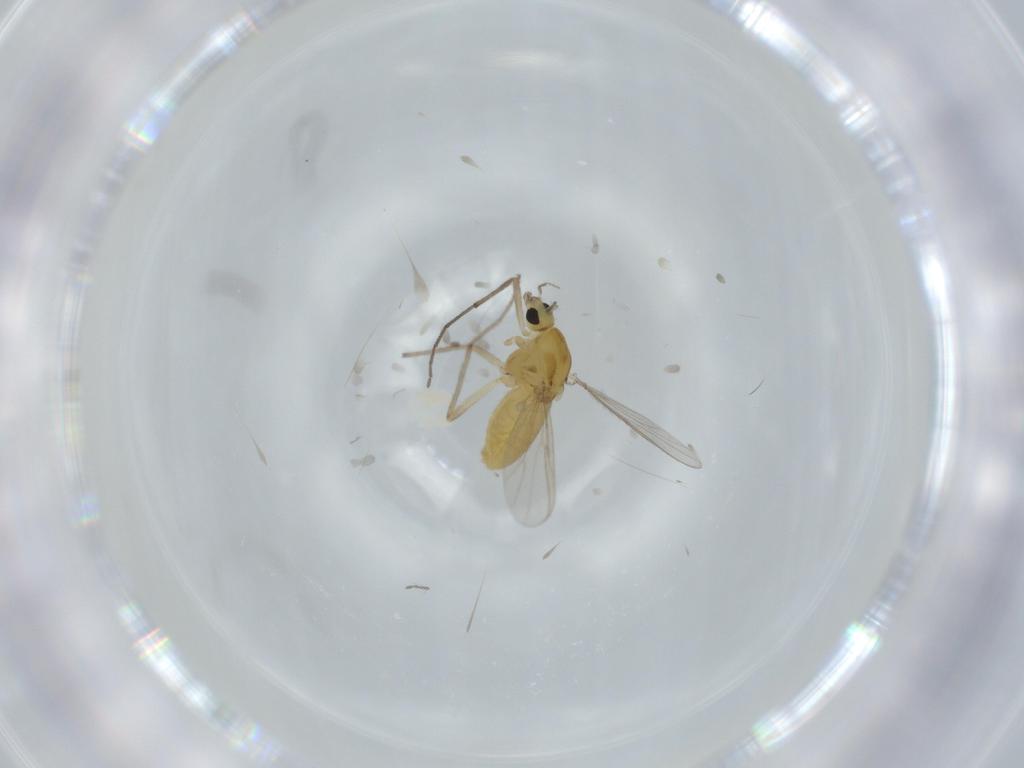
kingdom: Animalia
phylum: Arthropoda
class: Insecta
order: Diptera
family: Chironomidae
